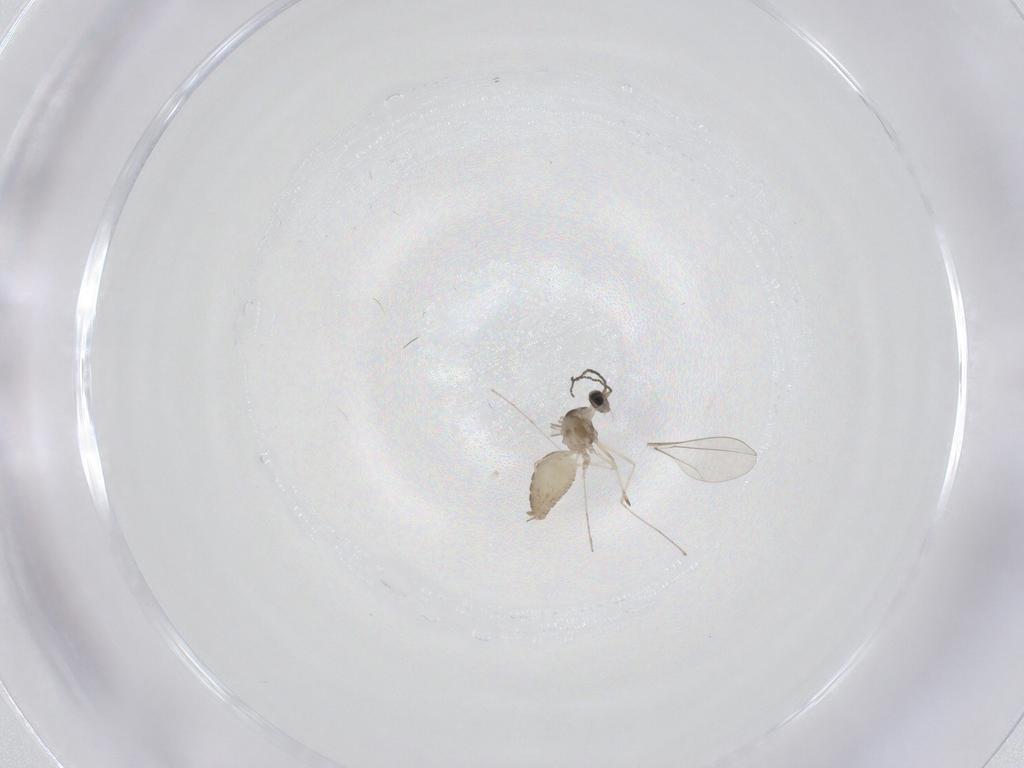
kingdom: Animalia
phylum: Arthropoda
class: Insecta
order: Diptera
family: Cecidomyiidae
